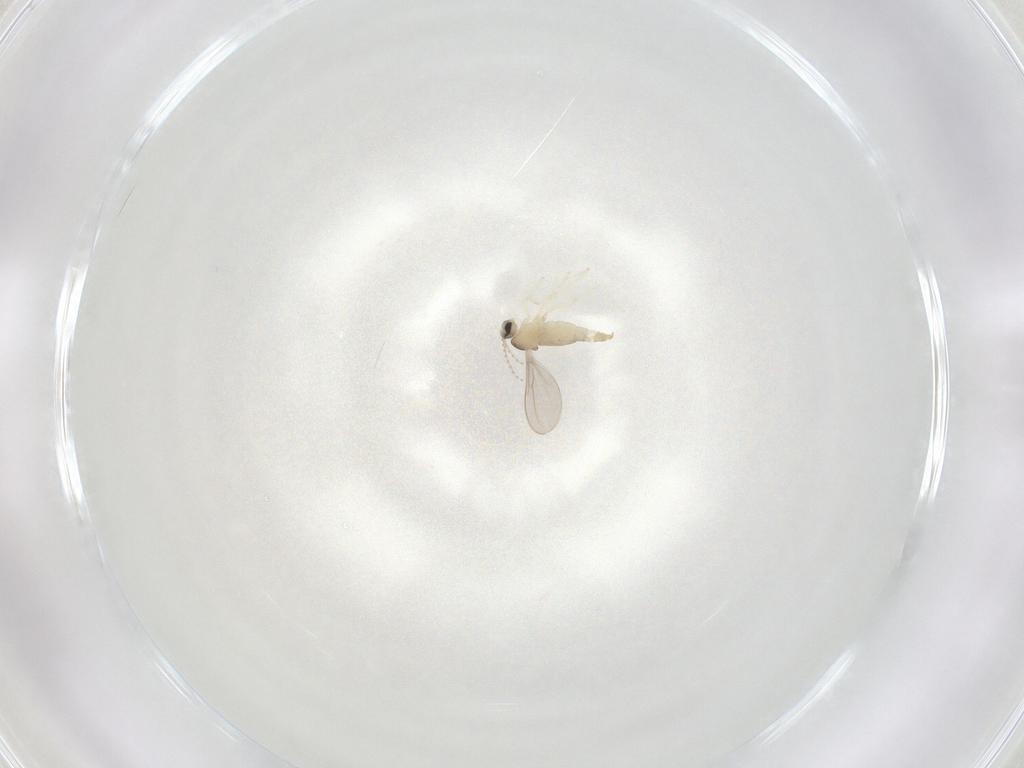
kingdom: Animalia
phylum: Arthropoda
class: Insecta
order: Diptera
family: Cecidomyiidae
